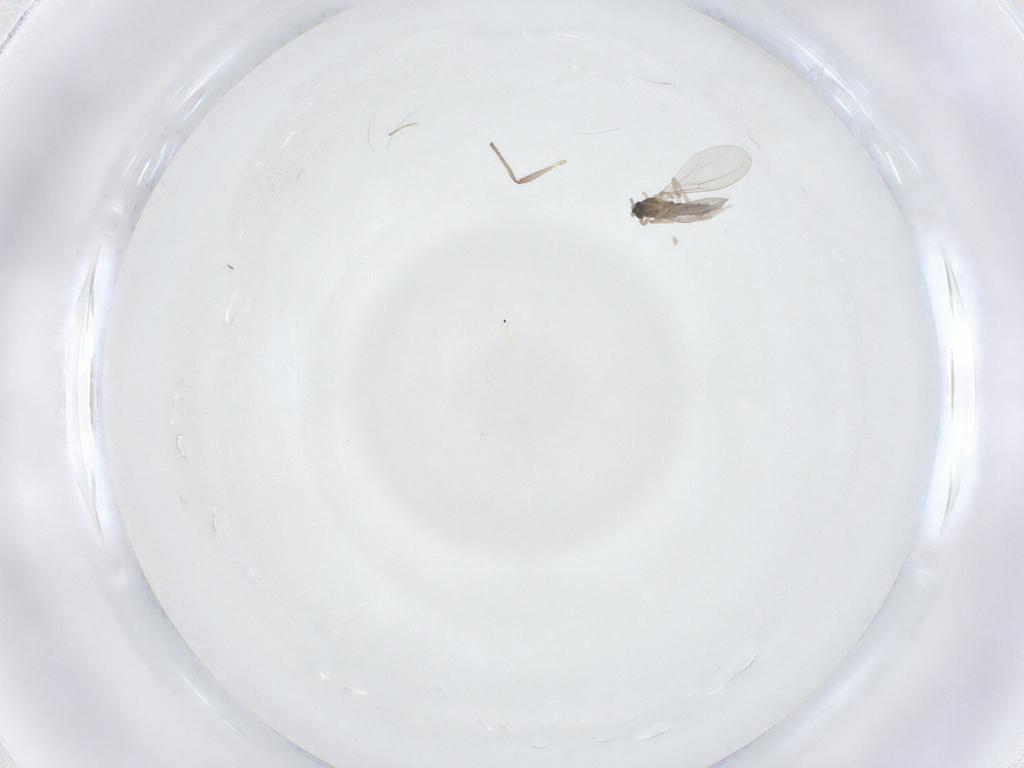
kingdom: Animalia
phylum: Arthropoda
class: Insecta
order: Diptera
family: Cecidomyiidae
